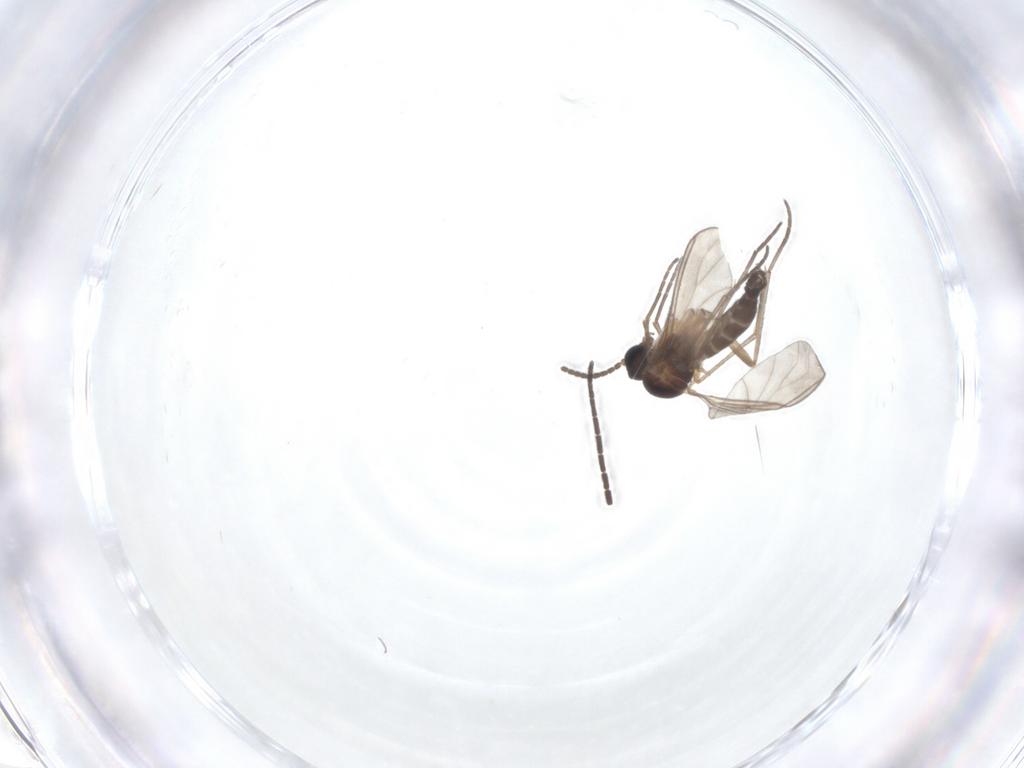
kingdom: Animalia
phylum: Arthropoda
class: Insecta
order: Diptera
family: Sciaridae
